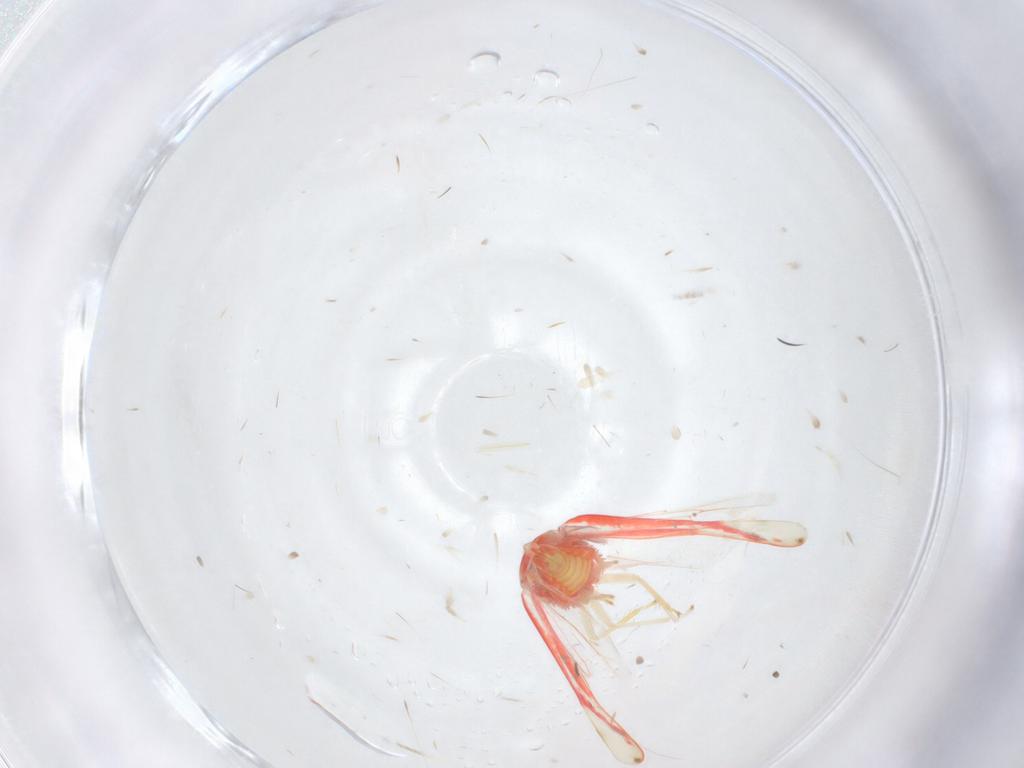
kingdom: Animalia
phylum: Arthropoda
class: Insecta
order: Hemiptera
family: Cicadellidae
